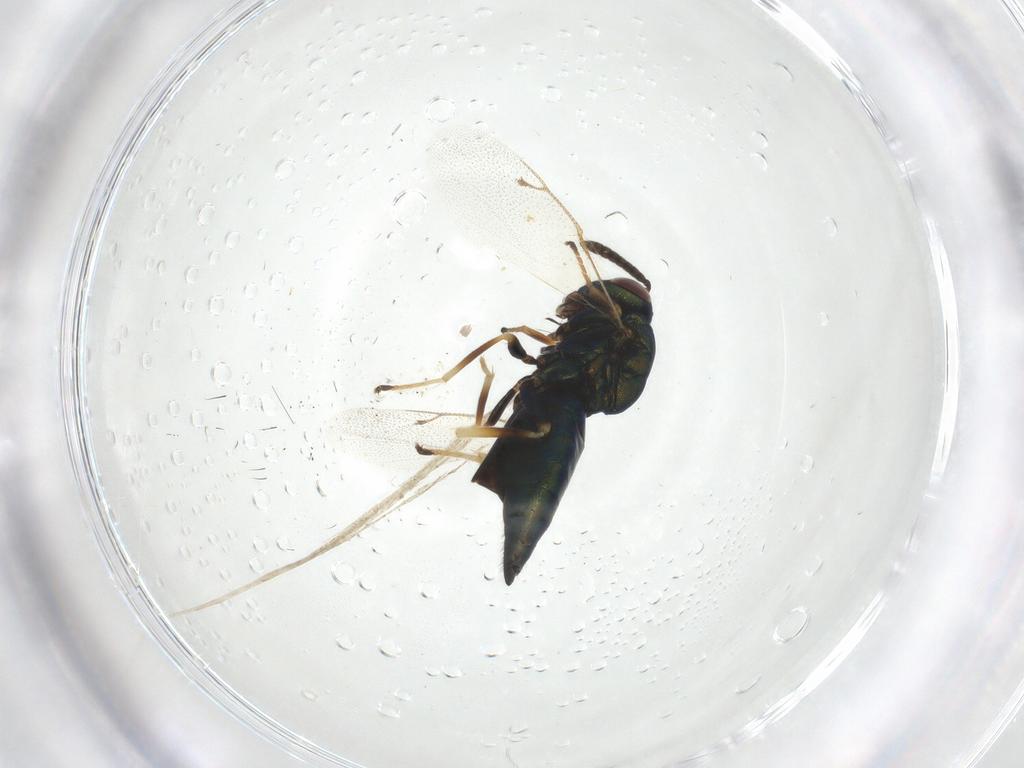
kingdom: Animalia
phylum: Arthropoda
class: Insecta
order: Hymenoptera
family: Pteromalidae
